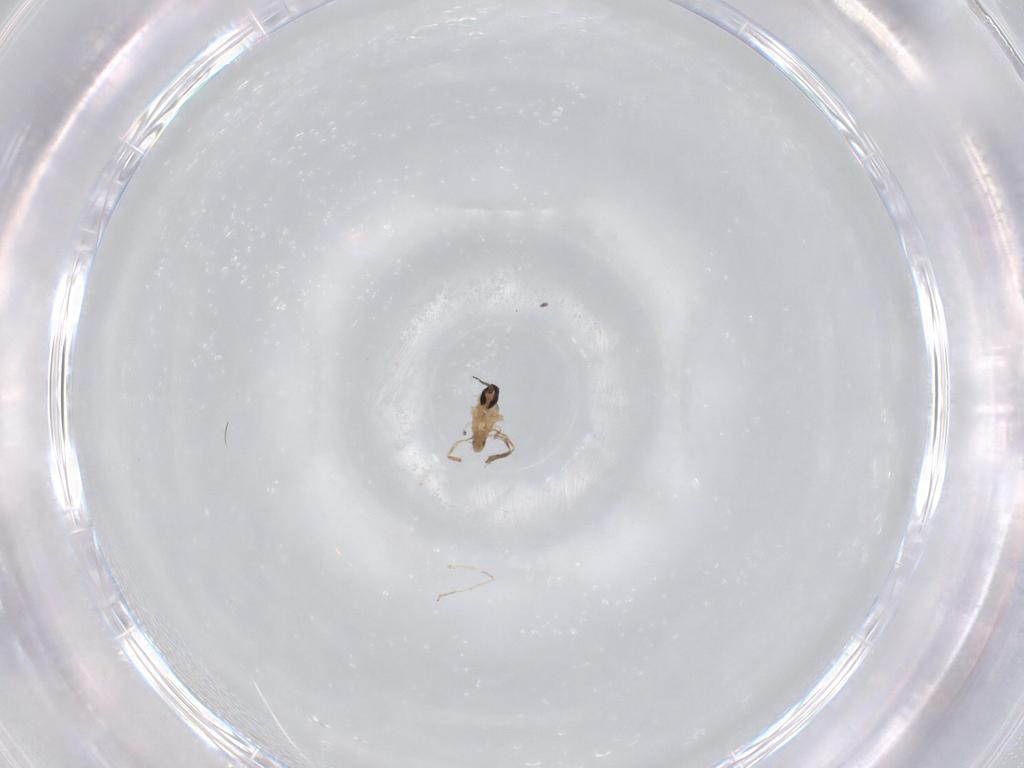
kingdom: Animalia
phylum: Arthropoda
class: Insecta
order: Diptera
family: Cecidomyiidae
